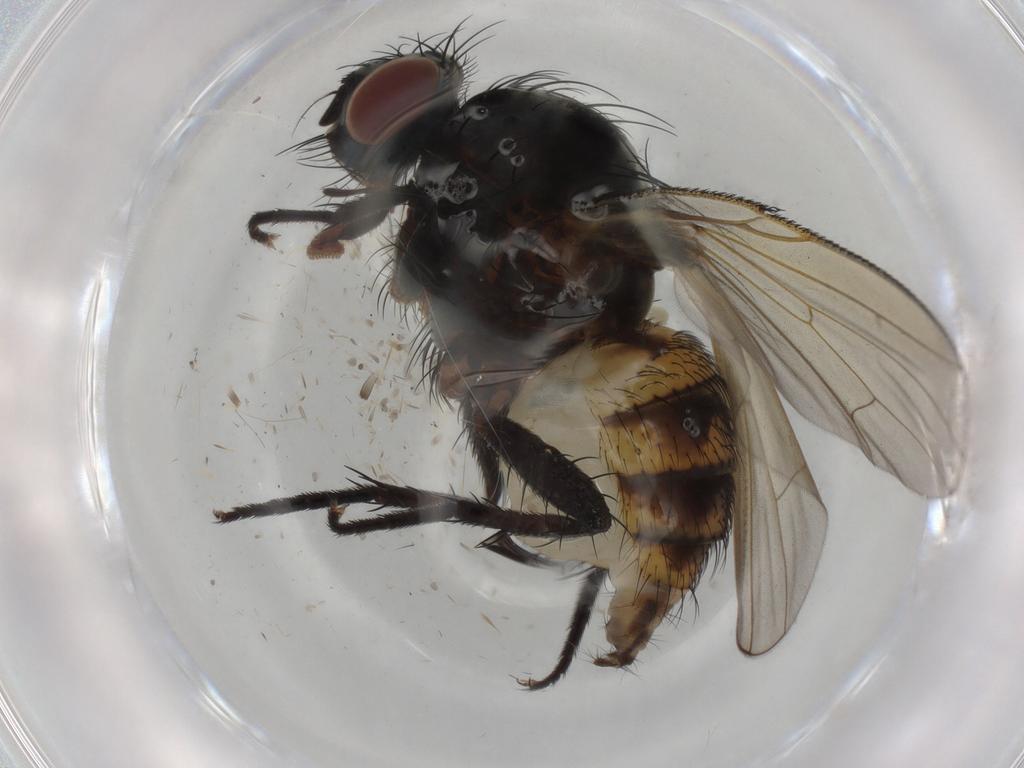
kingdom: Animalia
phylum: Arthropoda
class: Insecta
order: Diptera
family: Anthomyiidae
